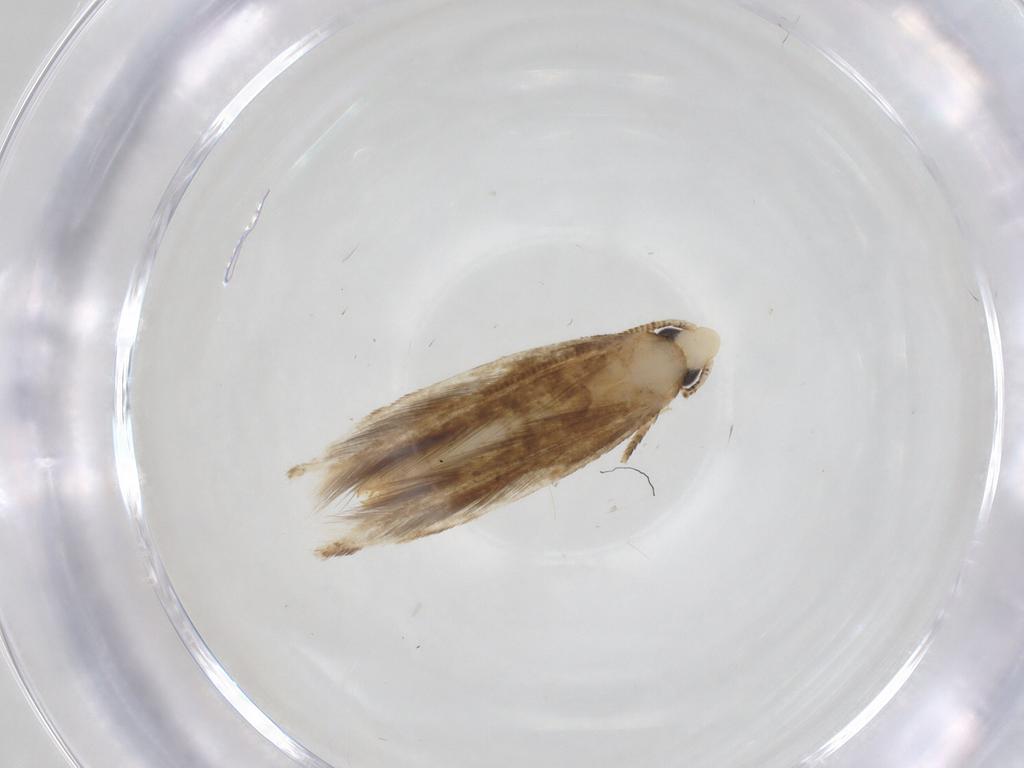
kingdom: Animalia
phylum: Arthropoda
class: Insecta
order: Lepidoptera
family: Tineidae
